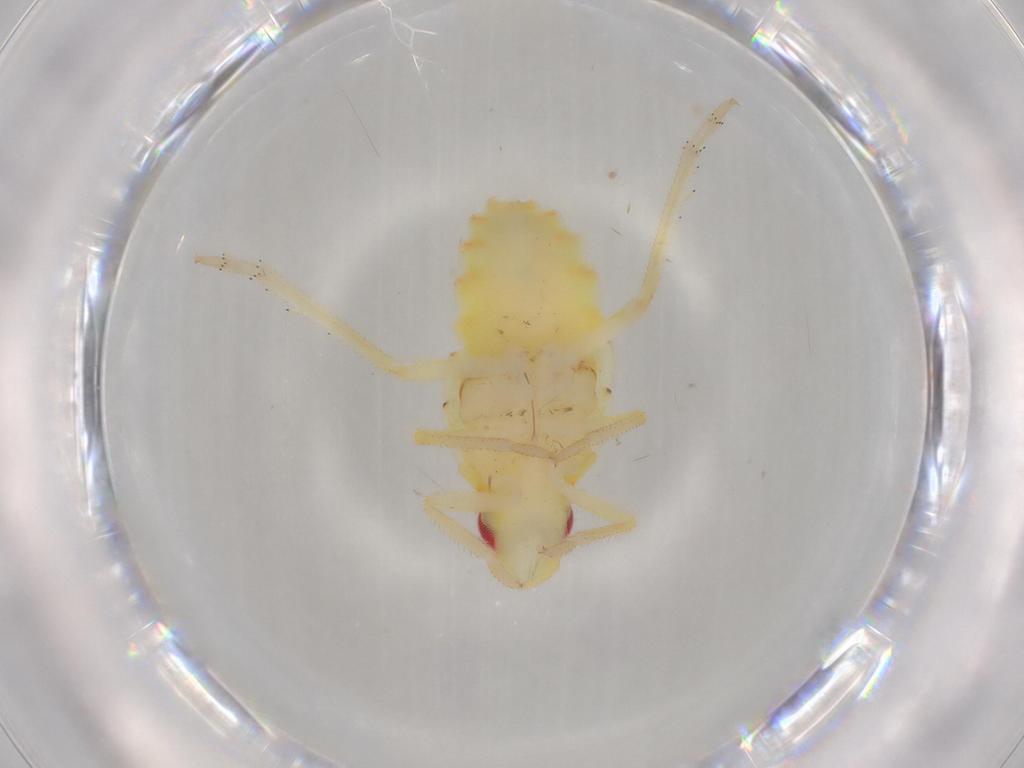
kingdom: Animalia
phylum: Arthropoda
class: Insecta
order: Hemiptera
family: Tropiduchidae
